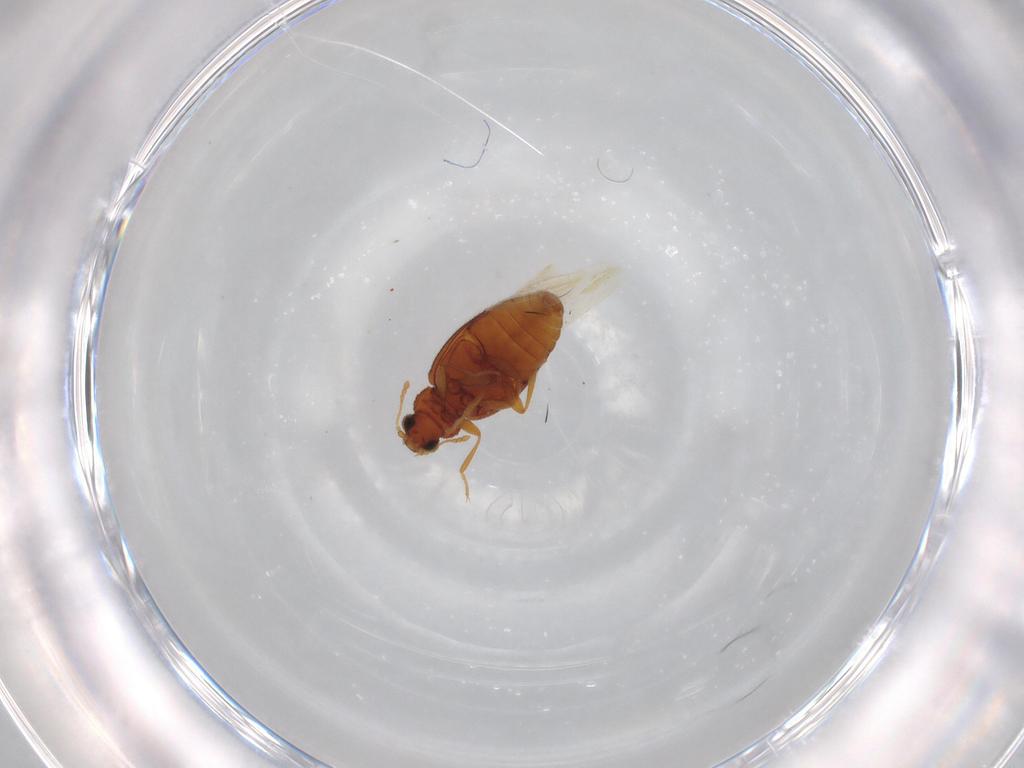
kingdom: Animalia
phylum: Arthropoda
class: Insecta
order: Coleoptera
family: Latridiidae
